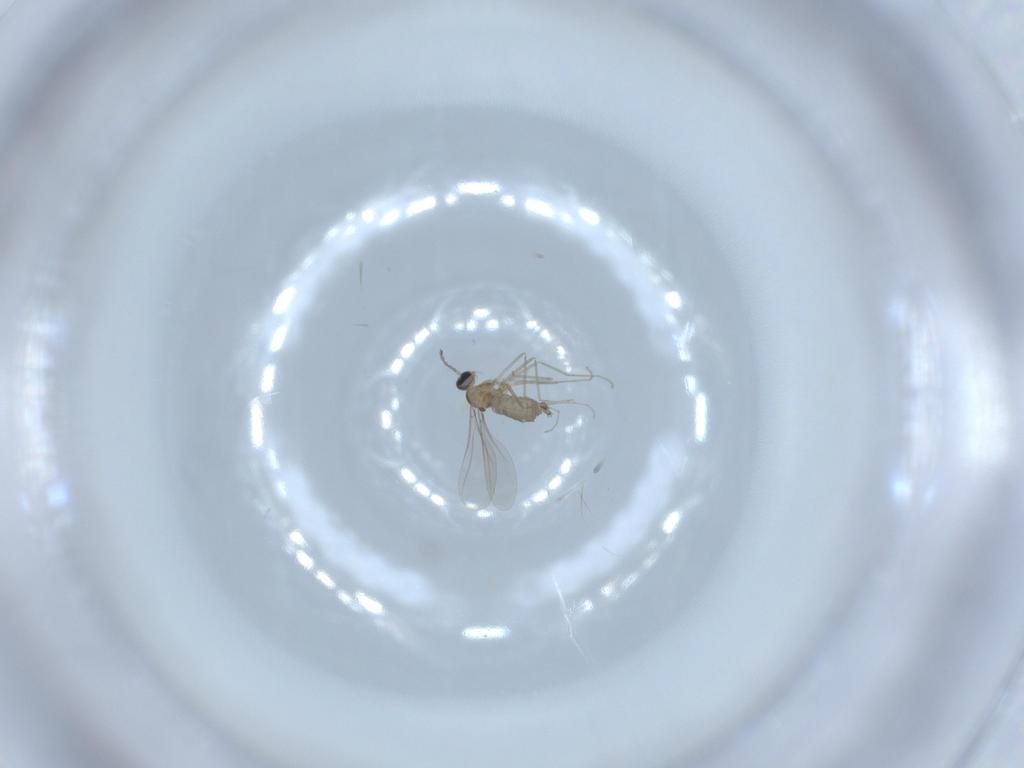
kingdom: Animalia
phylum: Arthropoda
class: Insecta
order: Diptera
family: Cecidomyiidae
